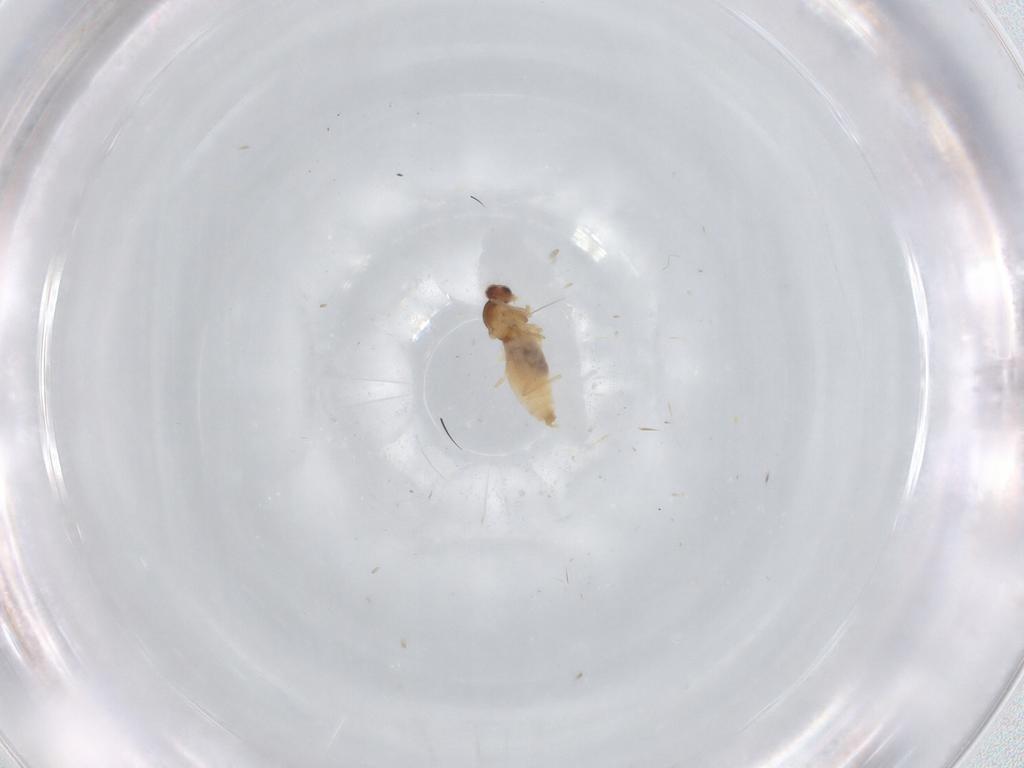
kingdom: Animalia
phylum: Arthropoda
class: Insecta
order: Diptera
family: Cecidomyiidae
